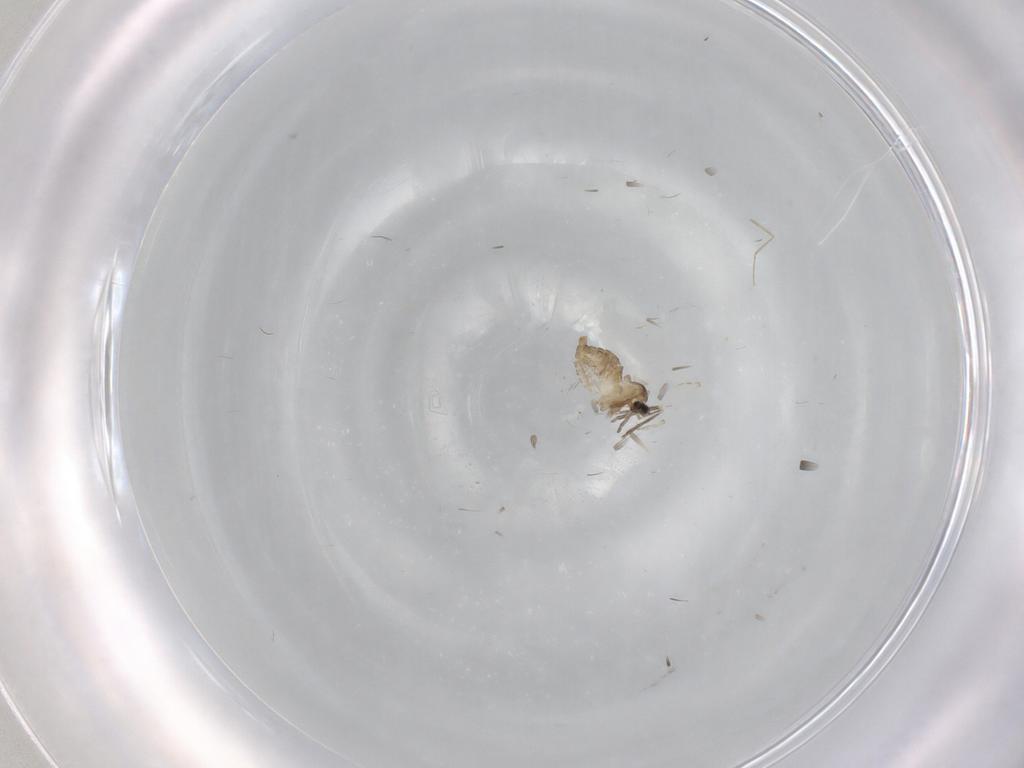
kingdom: Animalia
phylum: Arthropoda
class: Insecta
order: Diptera
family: Cecidomyiidae
